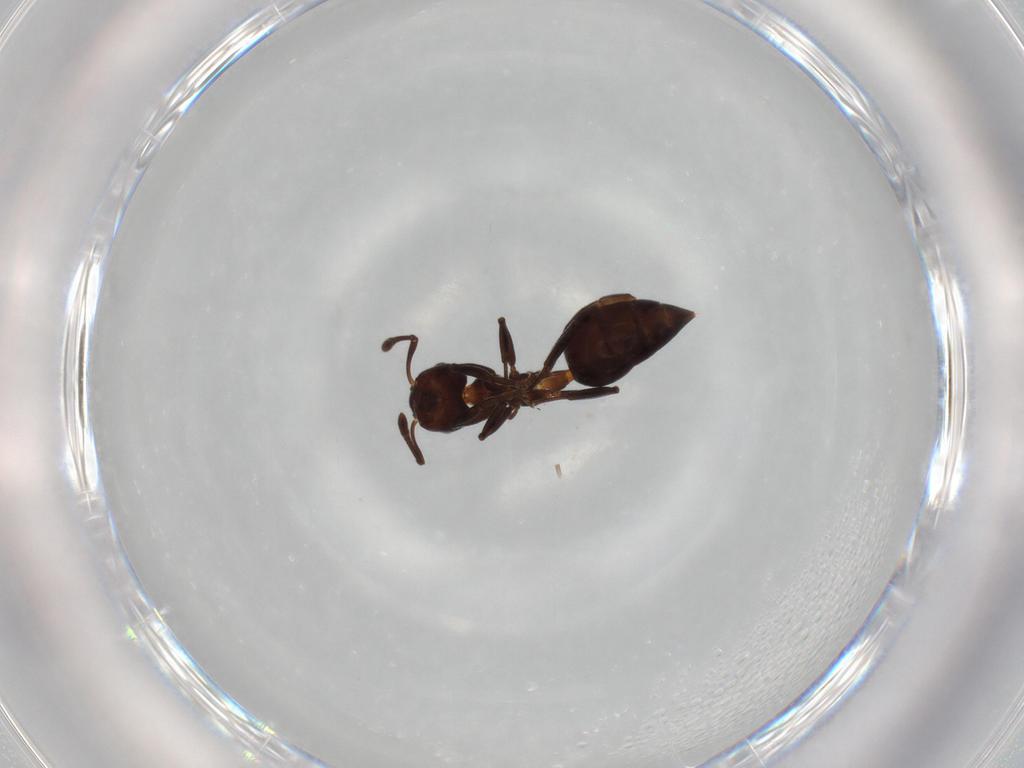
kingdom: Animalia
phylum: Arthropoda
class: Insecta
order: Hymenoptera
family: Formicidae
